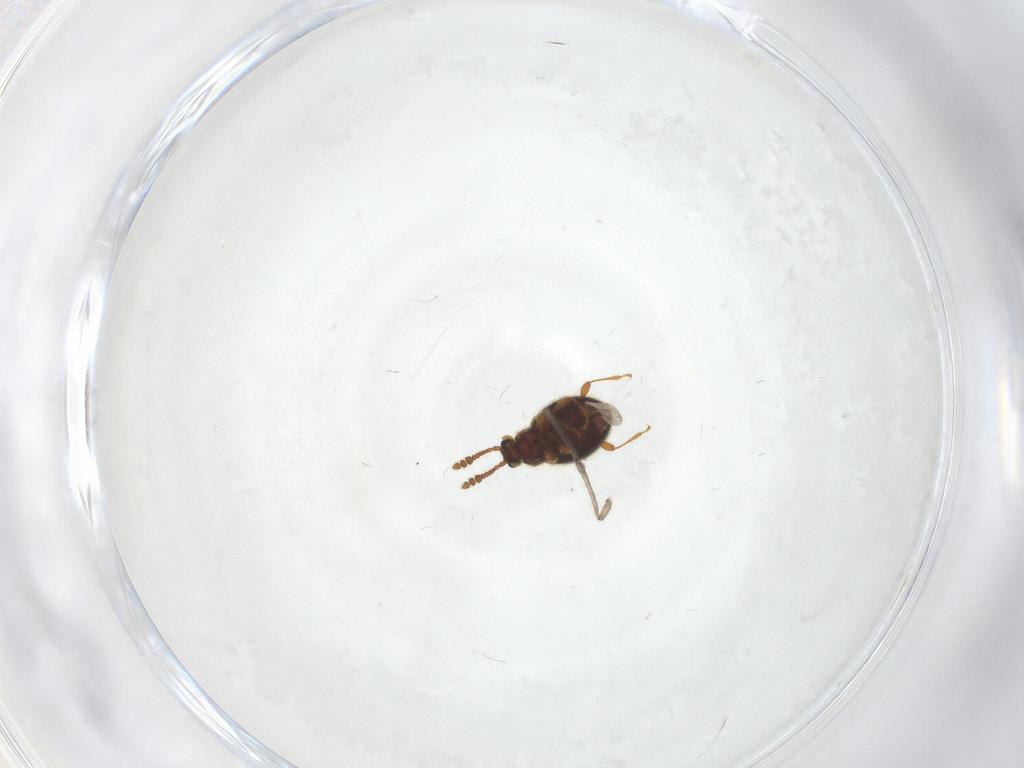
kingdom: Animalia
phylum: Arthropoda
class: Insecta
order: Coleoptera
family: Staphylinidae
